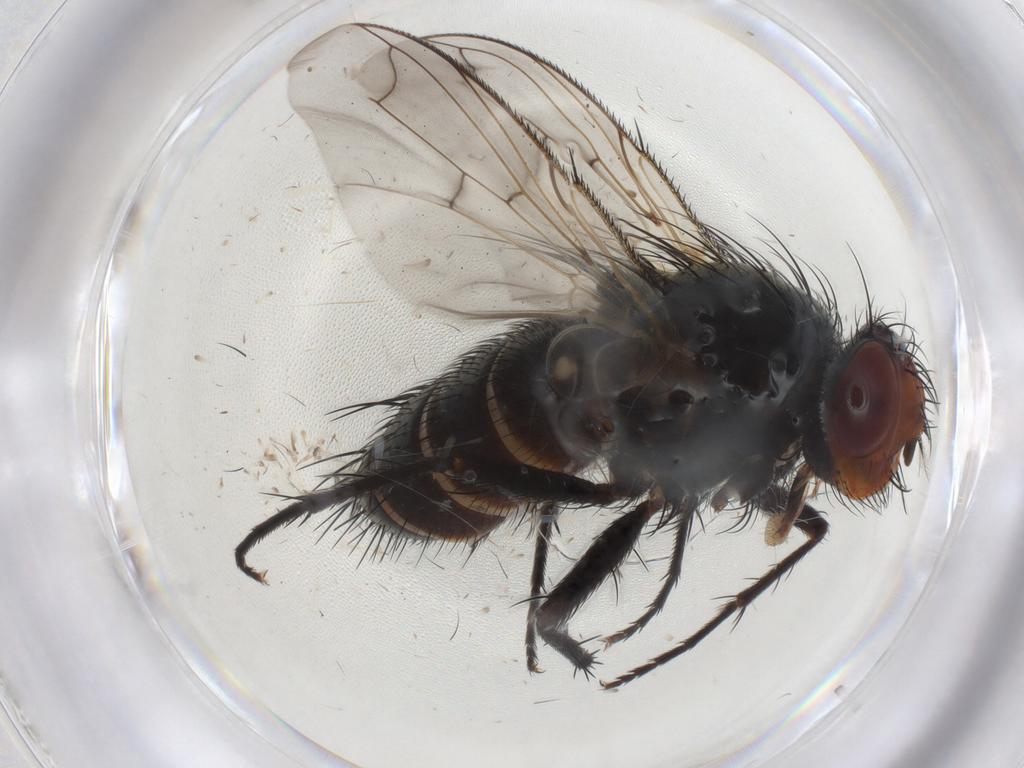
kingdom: Animalia
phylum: Arthropoda
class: Insecta
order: Diptera
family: Tachinidae
